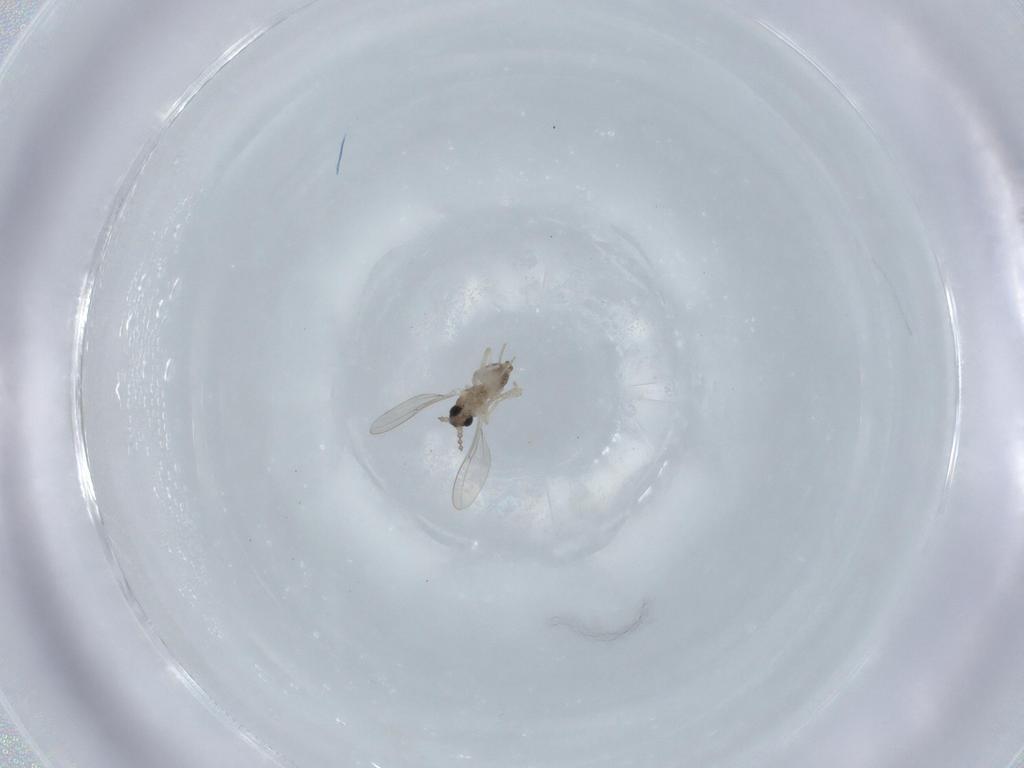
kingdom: Animalia
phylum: Arthropoda
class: Insecta
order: Diptera
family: Cecidomyiidae
